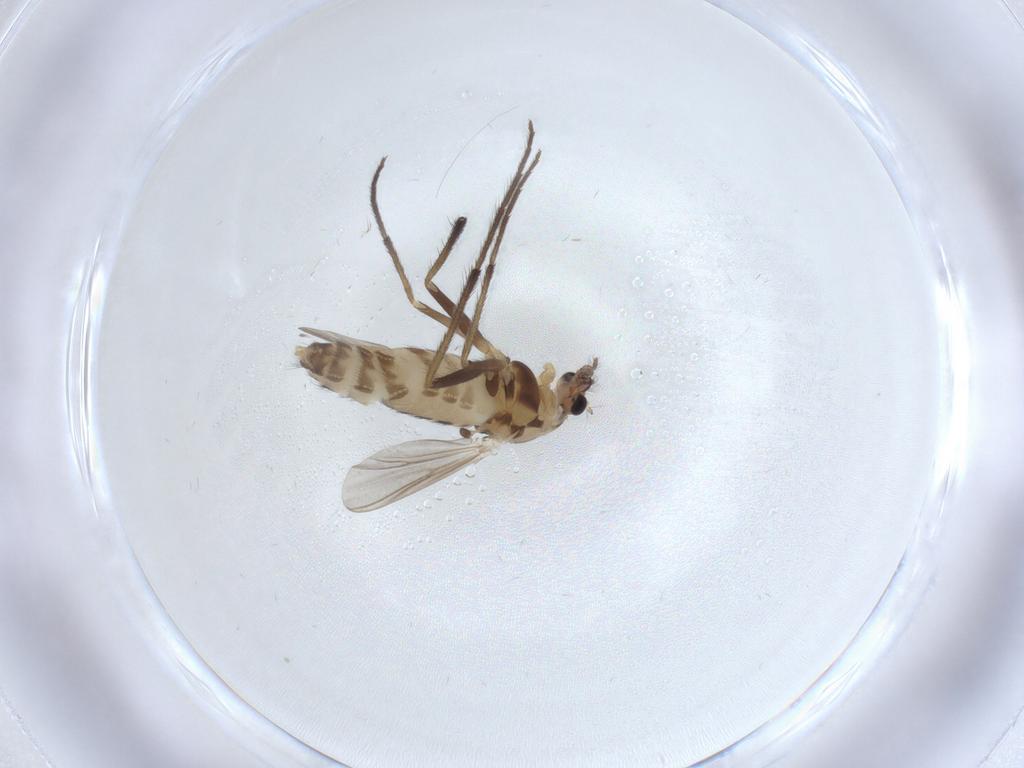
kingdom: Animalia
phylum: Arthropoda
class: Insecta
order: Diptera
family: Chironomidae
